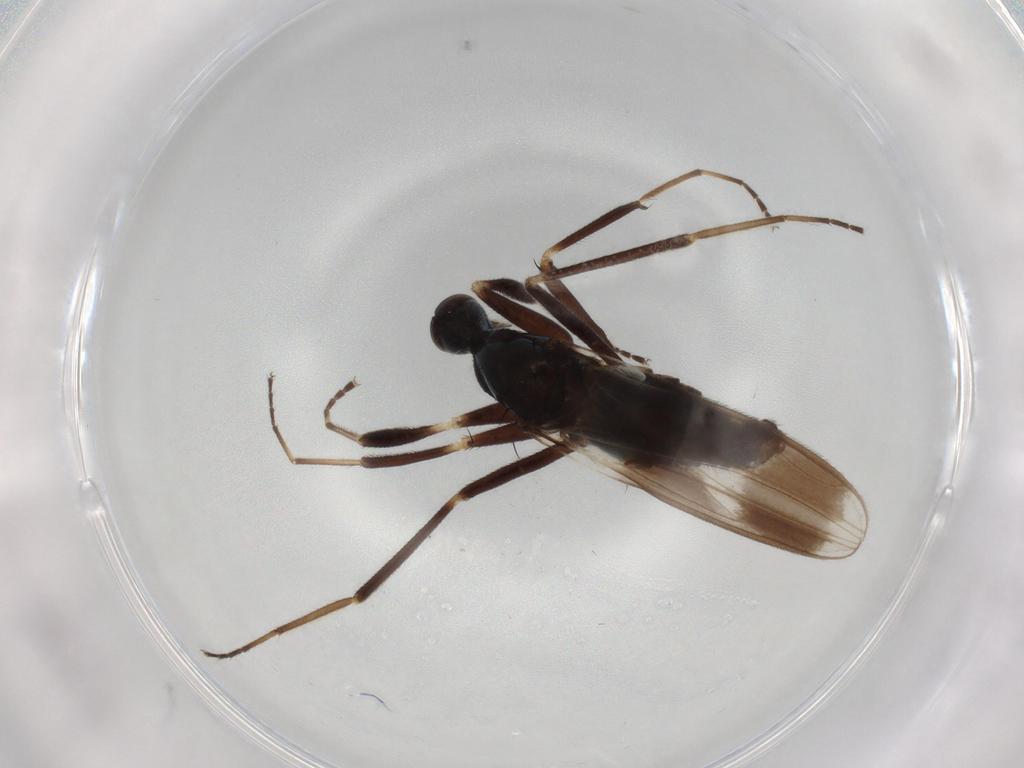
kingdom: Animalia
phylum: Arthropoda
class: Insecta
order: Diptera
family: Hybotidae
